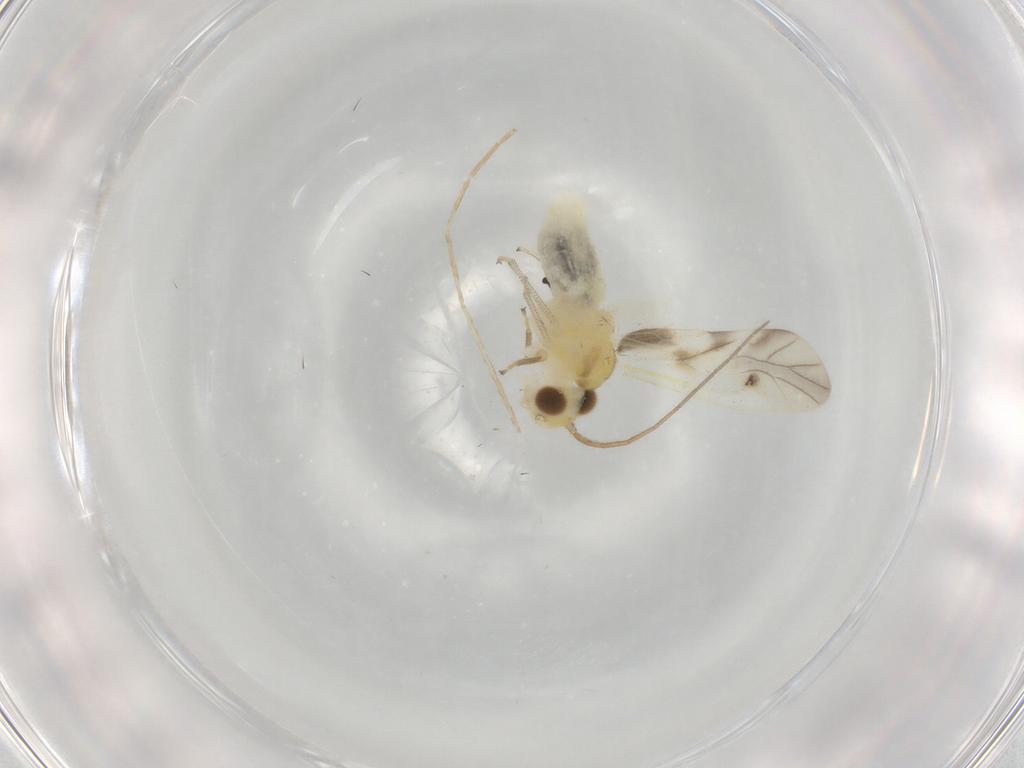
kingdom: Animalia
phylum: Arthropoda
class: Insecta
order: Psocodea
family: Caeciliusidae
